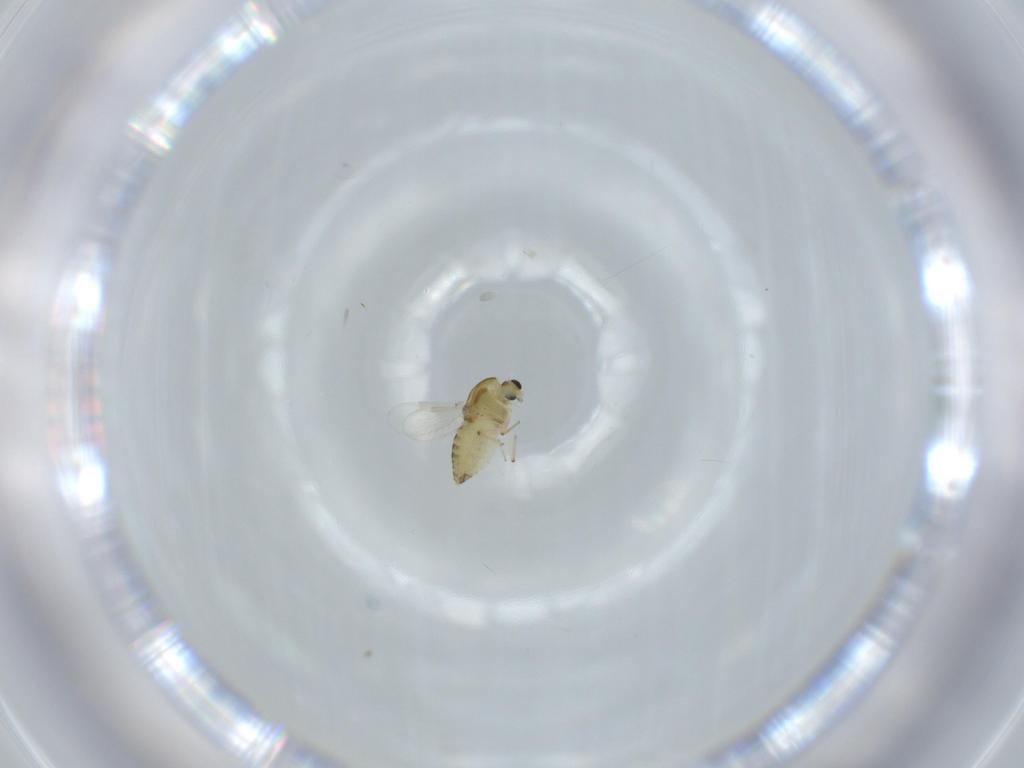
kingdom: Animalia
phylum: Arthropoda
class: Insecta
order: Diptera
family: Chironomidae
